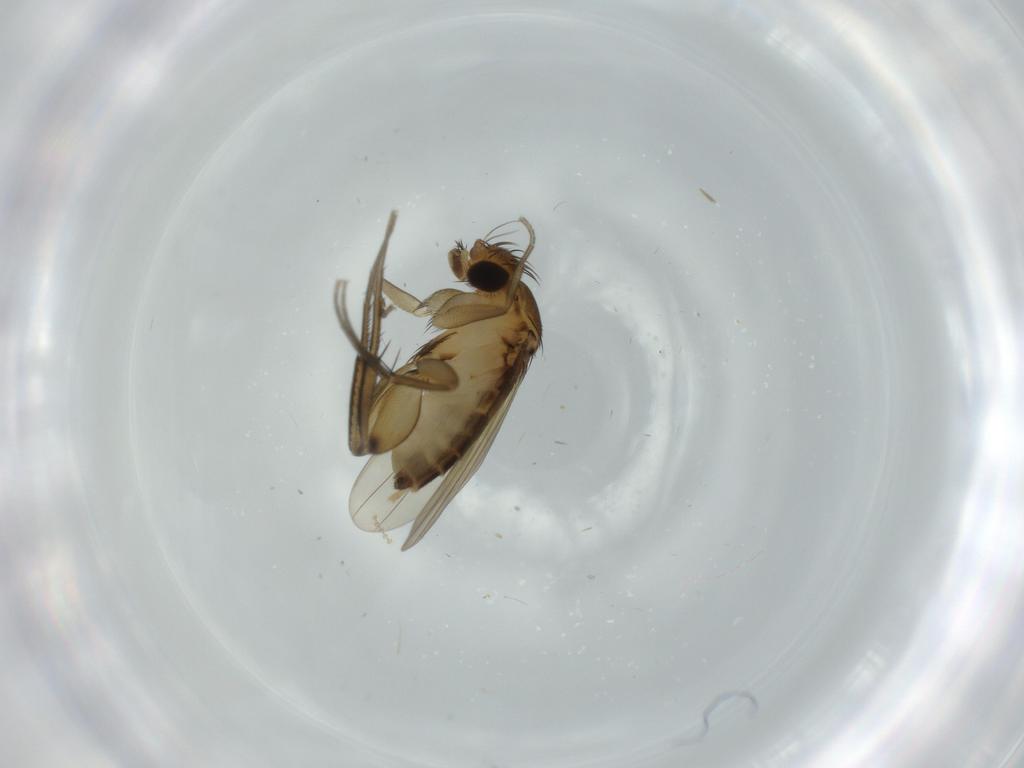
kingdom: Animalia
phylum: Arthropoda
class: Insecta
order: Diptera
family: Phoridae
